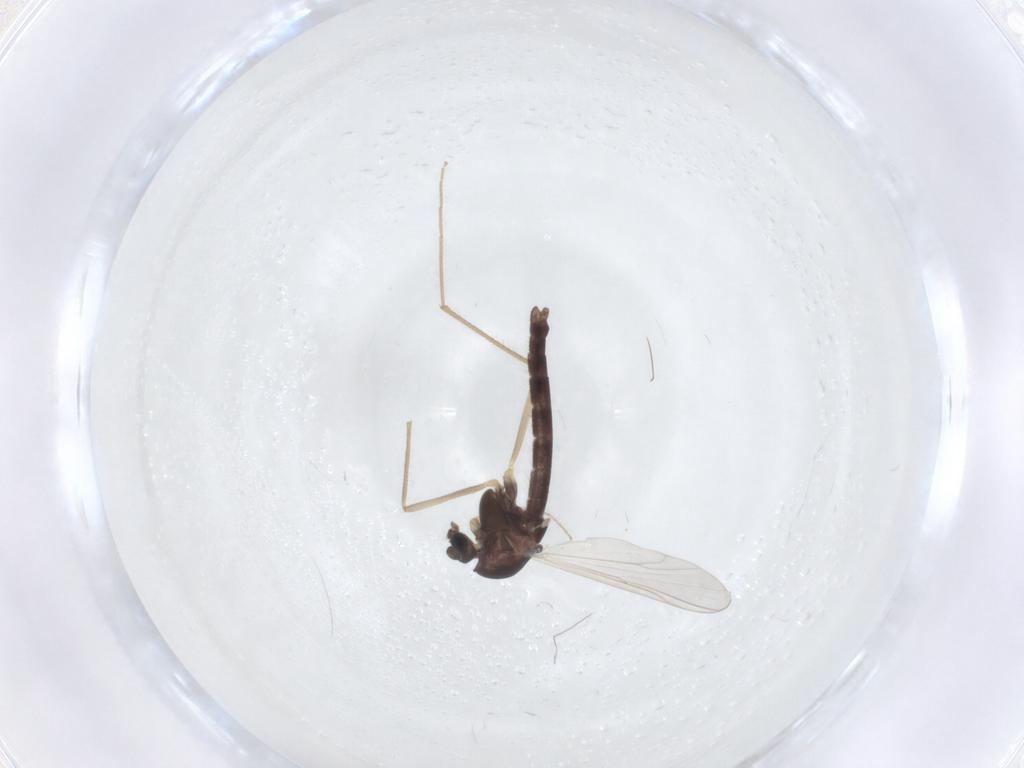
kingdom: Animalia
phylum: Arthropoda
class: Insecta
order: Diptera
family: Chironomidae
